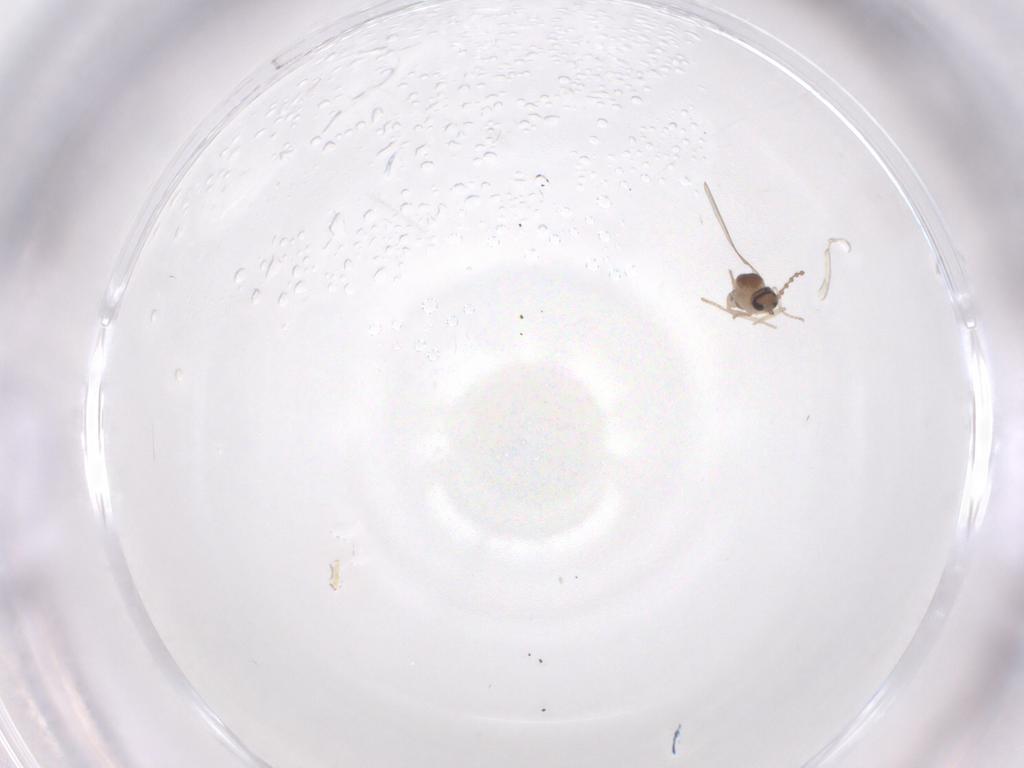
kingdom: Animalia
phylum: Arthropoda
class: Insecta
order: Diptera
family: Cecidomyiidae
